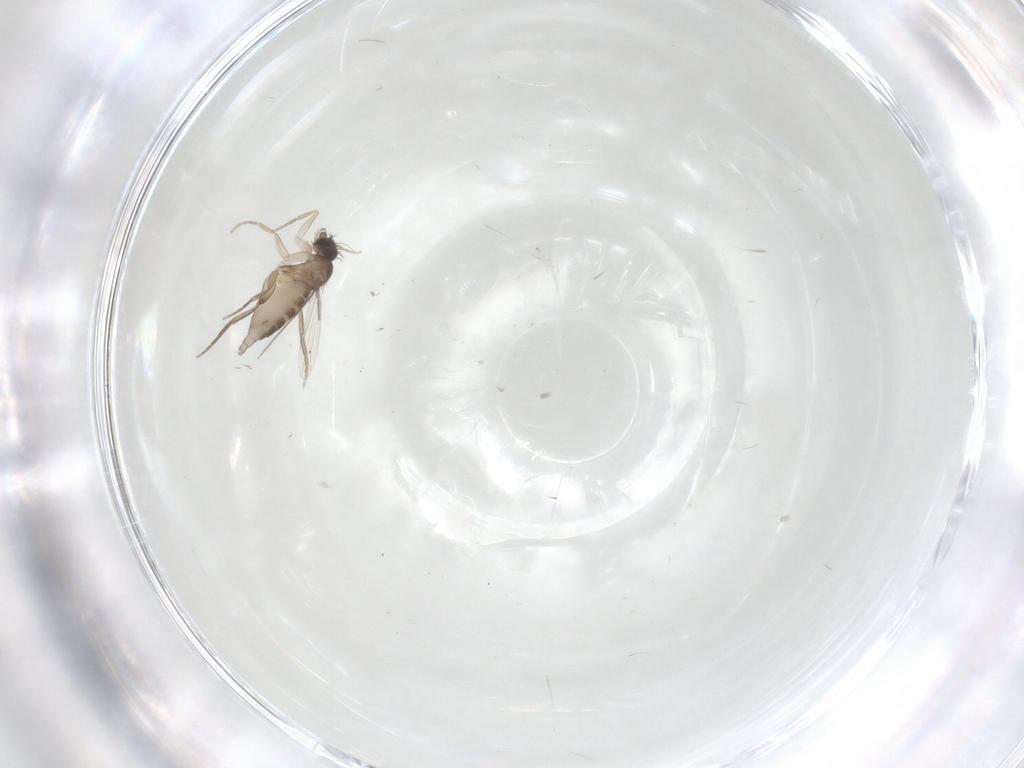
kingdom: Animalia
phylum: Arthropoda
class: Insecta
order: Diptera
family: Phoridae
